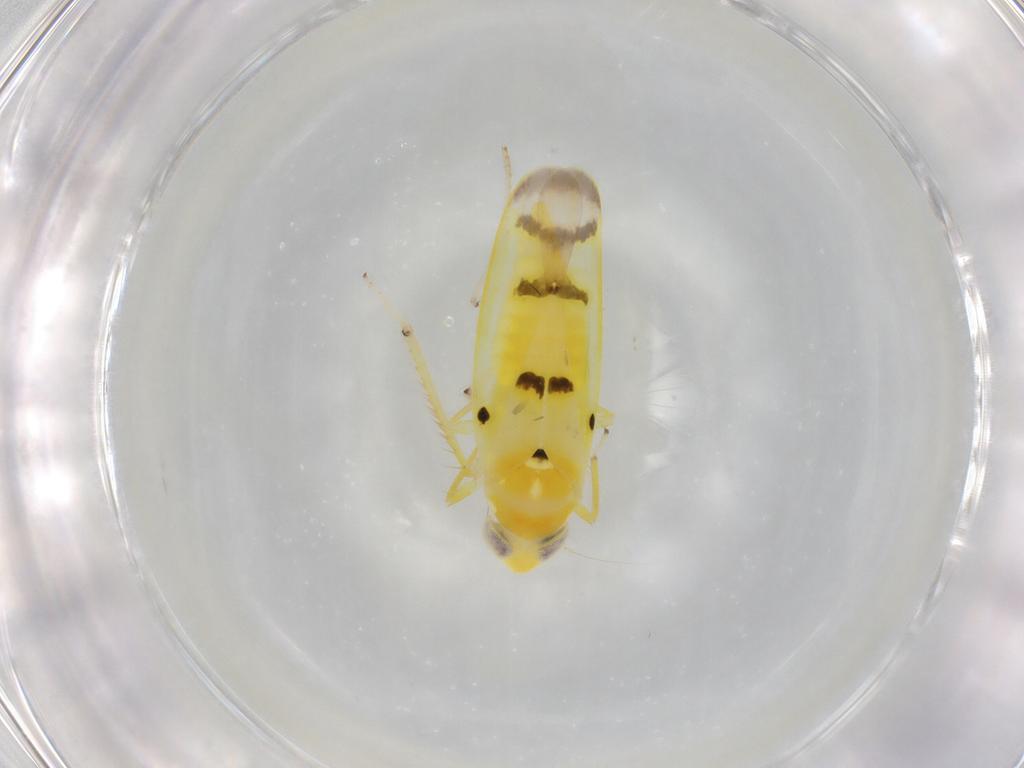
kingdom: Animalia
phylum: Arthropoda
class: Insecta
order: Hemiptera
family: Cicadellidae
